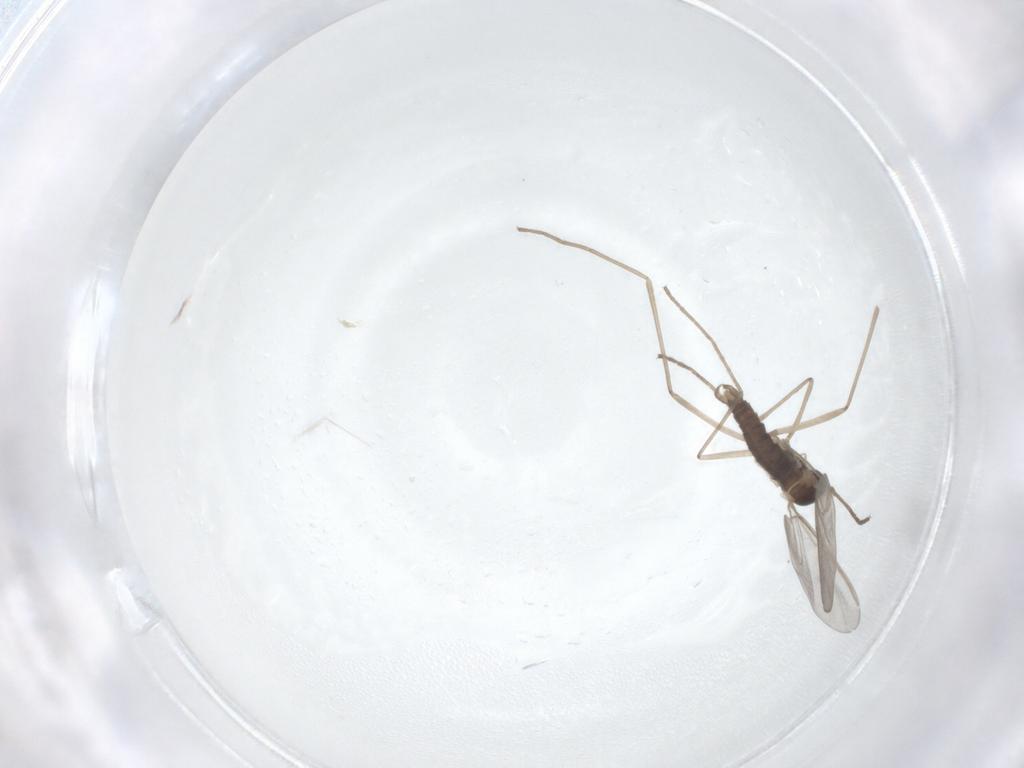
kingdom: Animalia
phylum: Arthropoda
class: Insecta
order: Diptera
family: Cecidomyiidae
